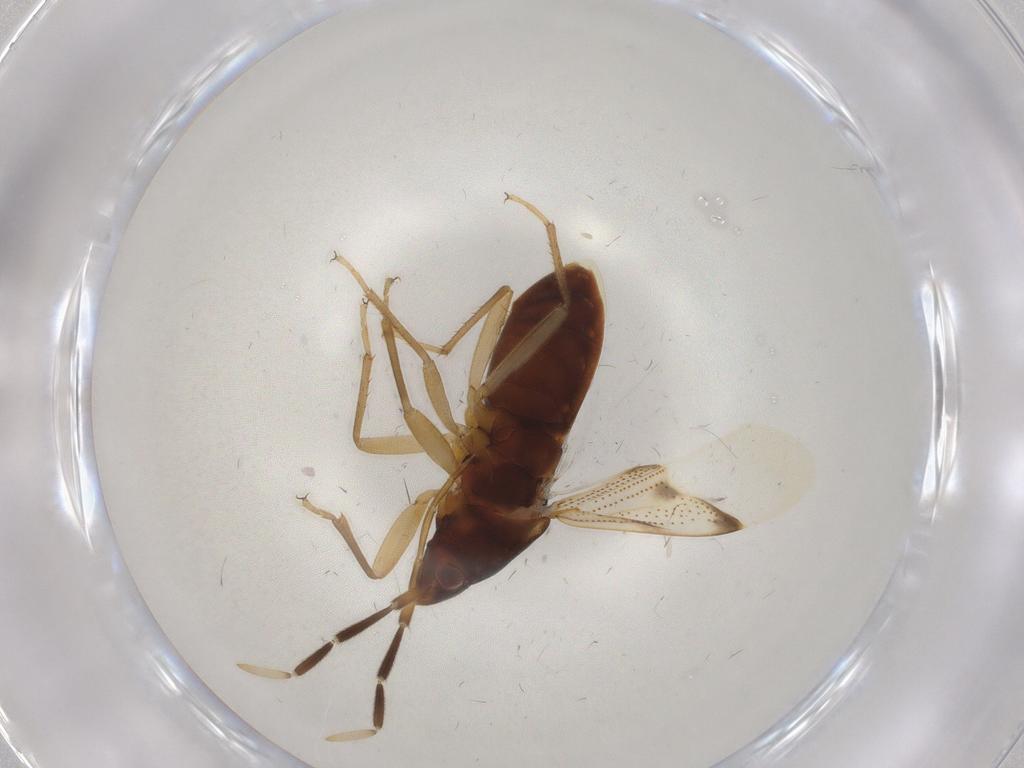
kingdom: Animalia
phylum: Arthropoda
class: Insecta
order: Hemiptera
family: Rhyparochromidae
